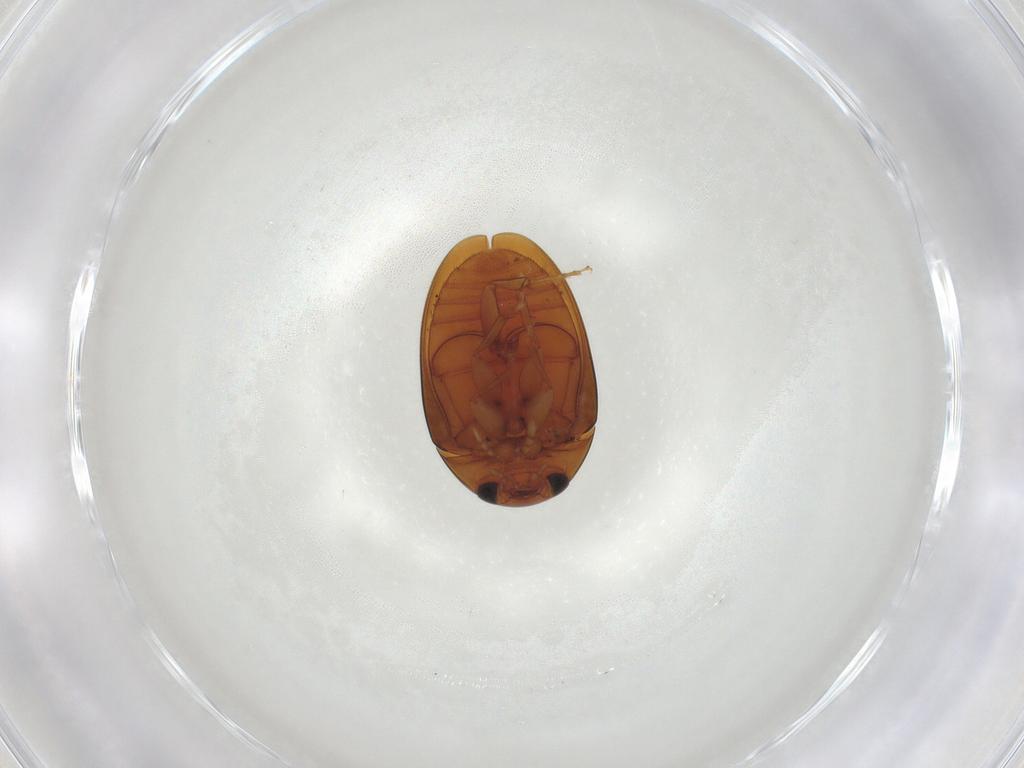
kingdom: Animalia
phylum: Arthropoda
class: Insecta
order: Coleoptera
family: Phalacridae
